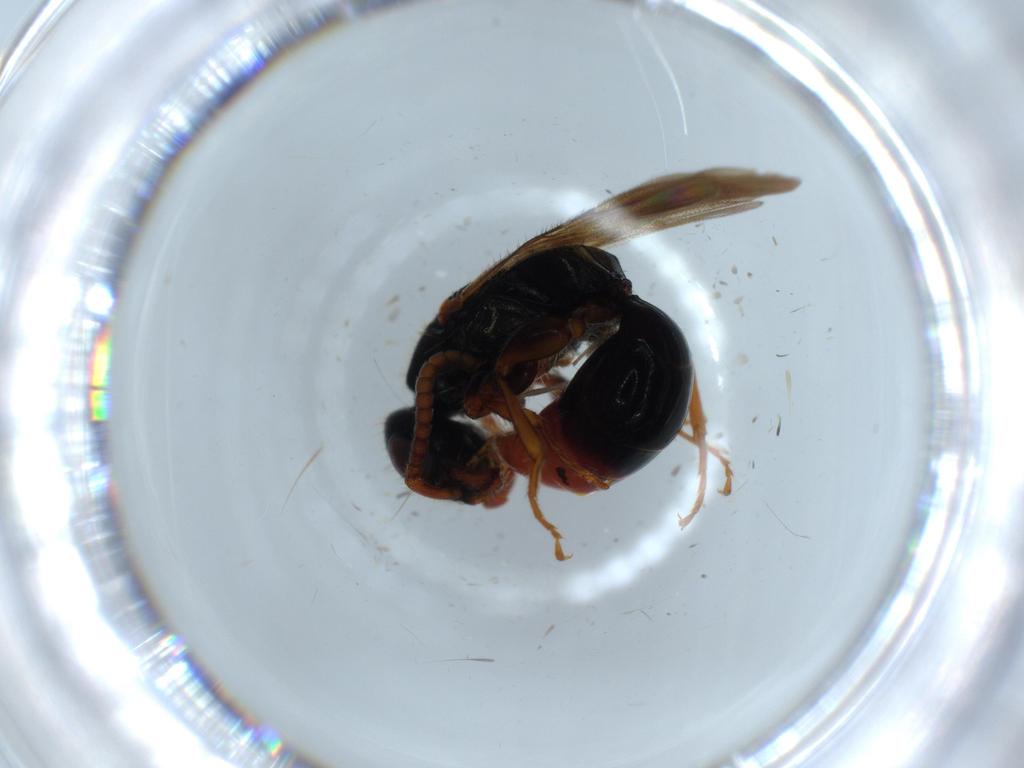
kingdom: Animalia
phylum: Arthropoda
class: Insecta
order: Hymenoptera
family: Bethylidae
